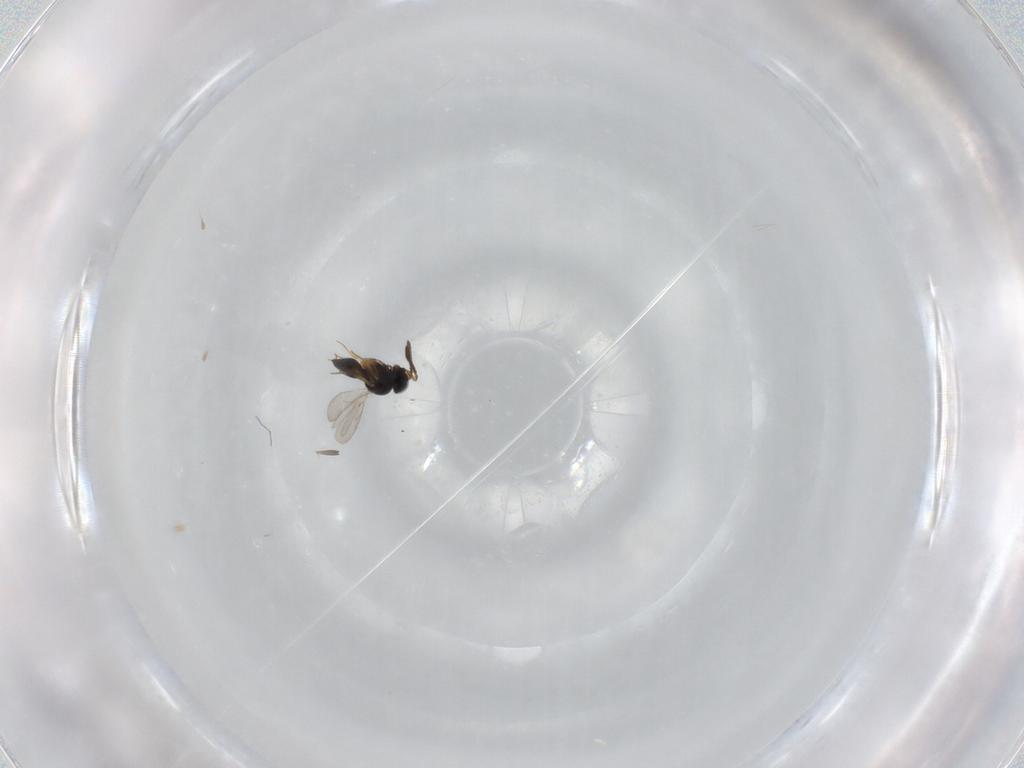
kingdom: Animalia
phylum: Arthropoda
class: Insecta
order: Hymenoptera
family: Scelionidae
